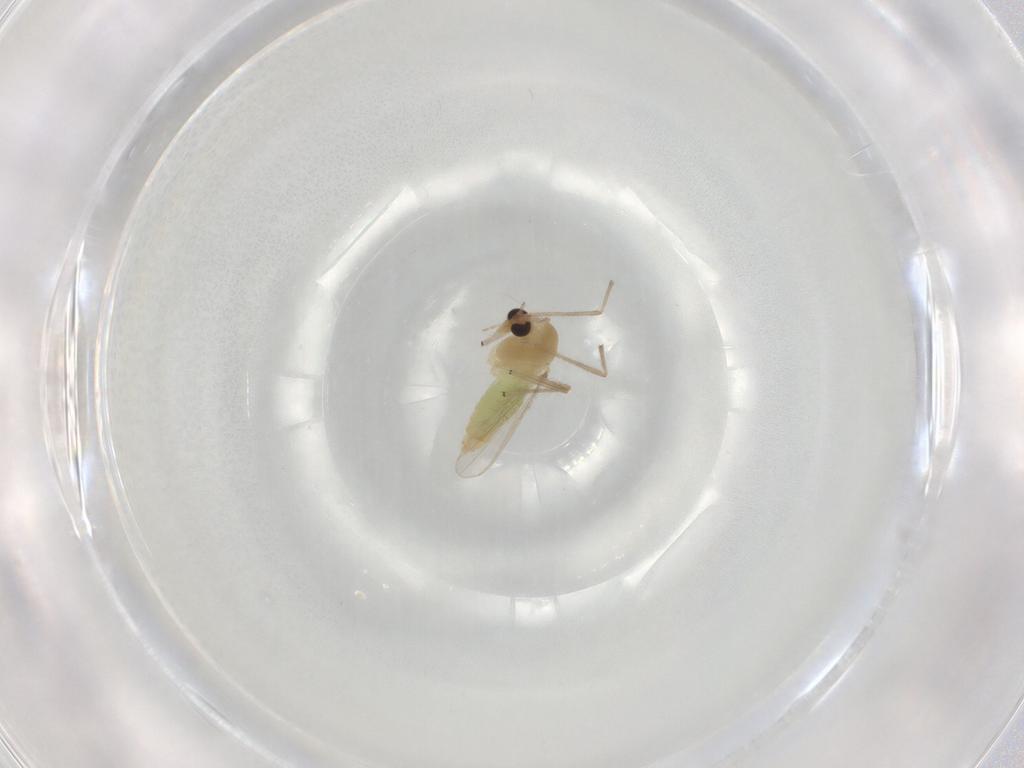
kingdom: Animalia
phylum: Arthropoda
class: Insecta
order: Diptera
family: Chironomidae
